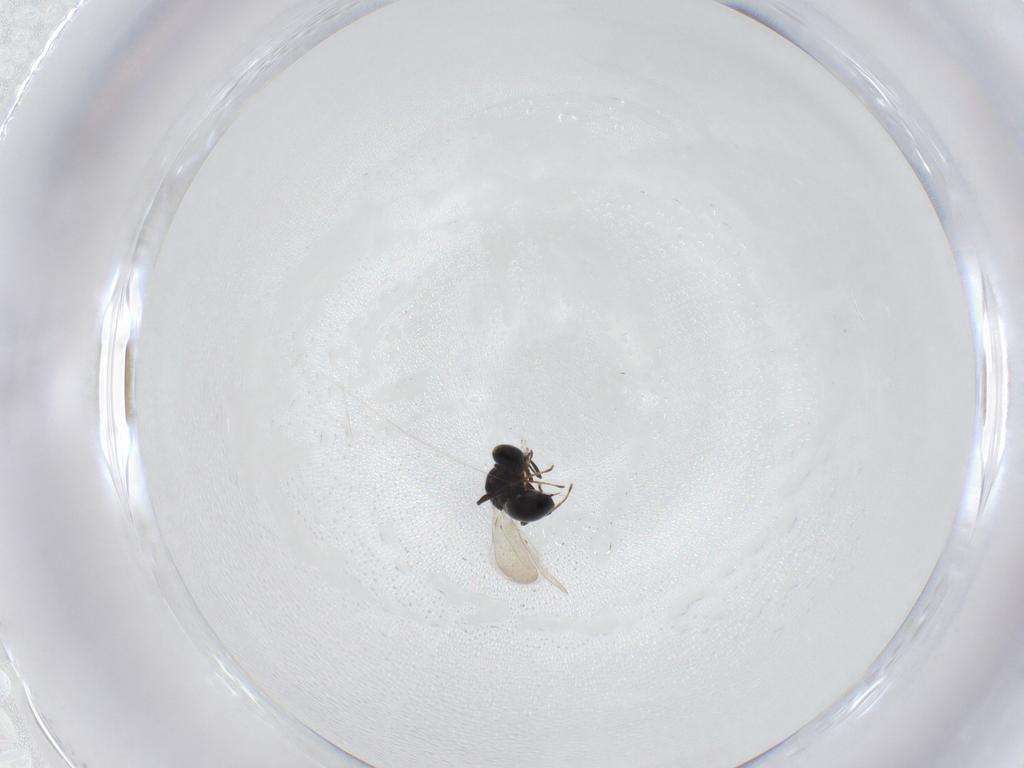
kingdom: Animalia
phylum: Arthropoda
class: Insecta
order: Hymenoptera
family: Platygastridae
